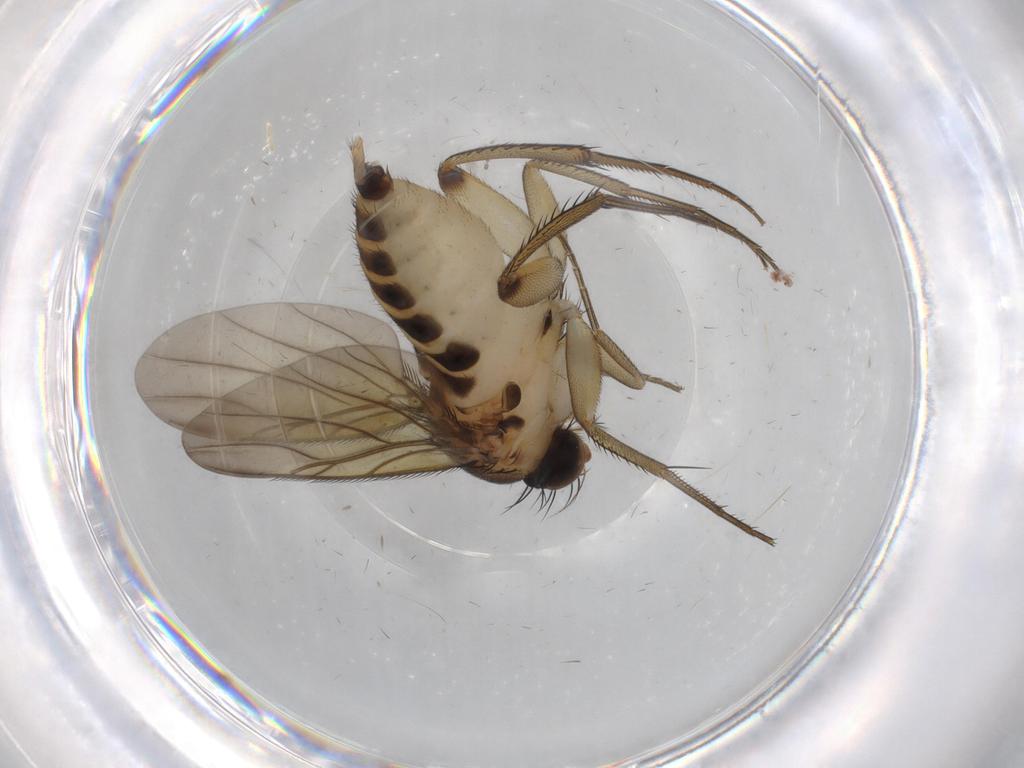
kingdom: Animalia
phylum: Arthropoda
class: Insecta
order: Diptera
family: Phoridae
